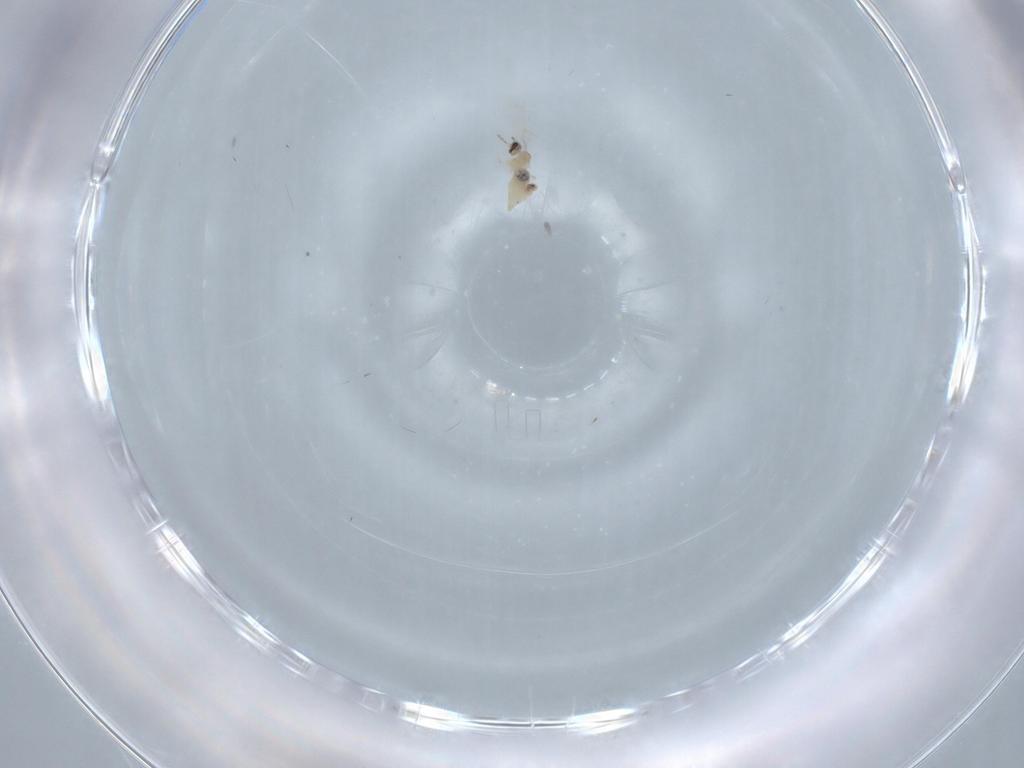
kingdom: Animalia
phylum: Arthropoda
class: Insecta
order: Diptera
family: Cecidomyiidae
